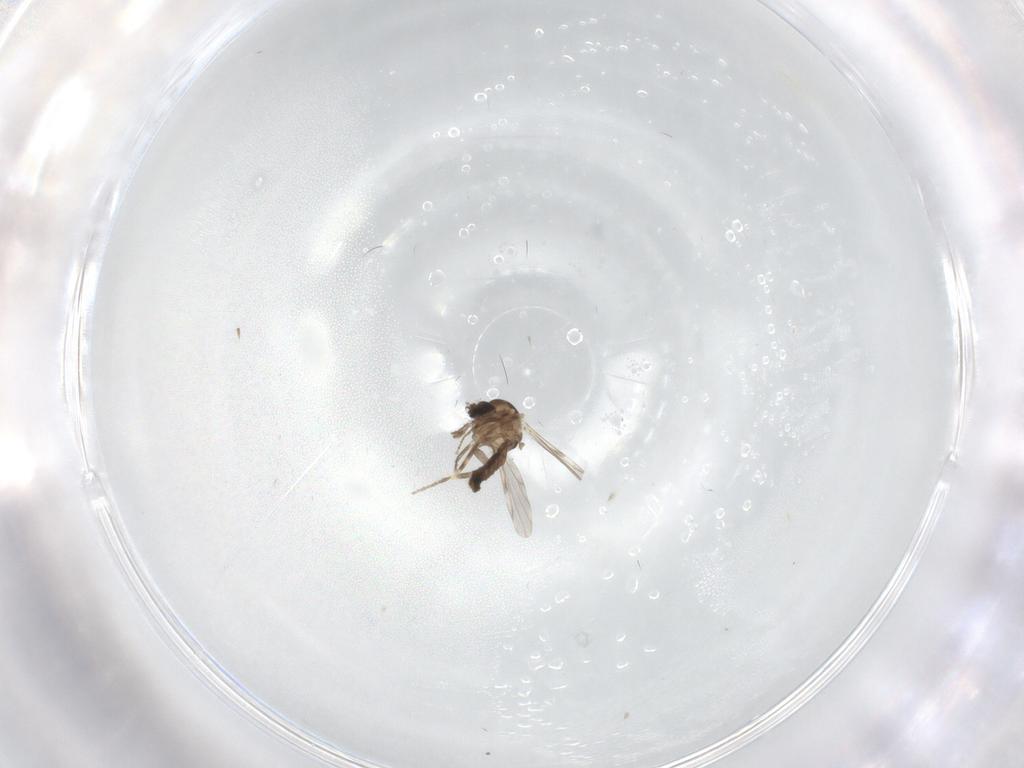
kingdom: Animalia
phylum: Arthropoda
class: Insecta
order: Diptera
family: Ceratopogonidae
